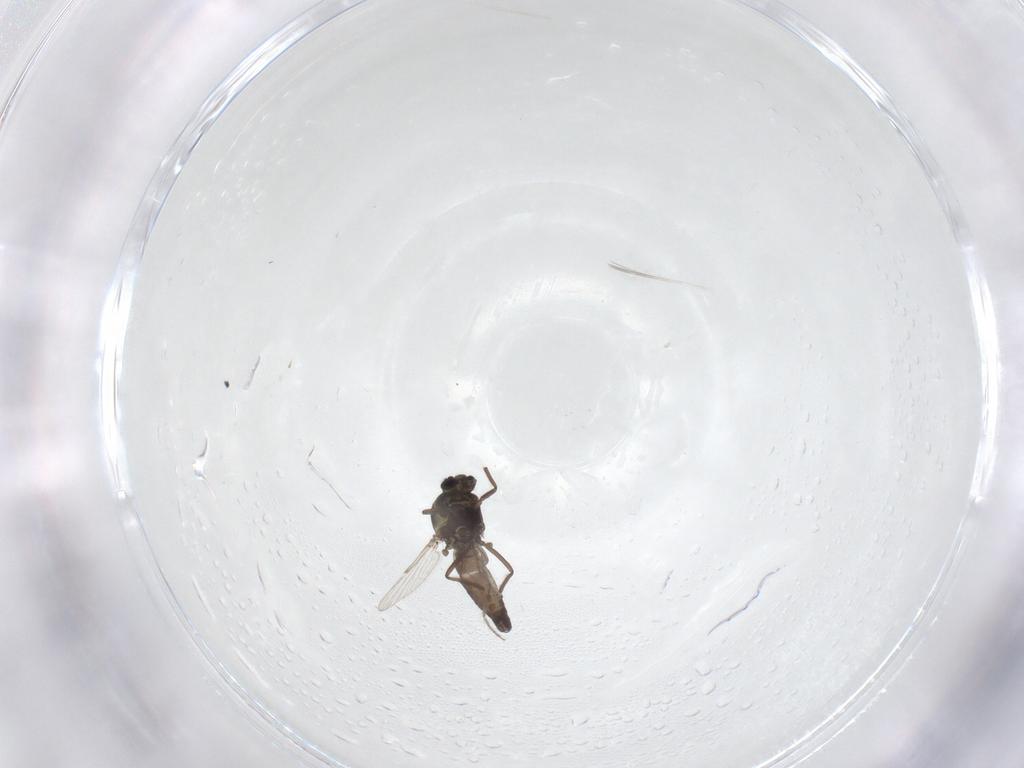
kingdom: Animalia
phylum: Arthropoda
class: Insecta
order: Diptera
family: Ceratopogonidae
